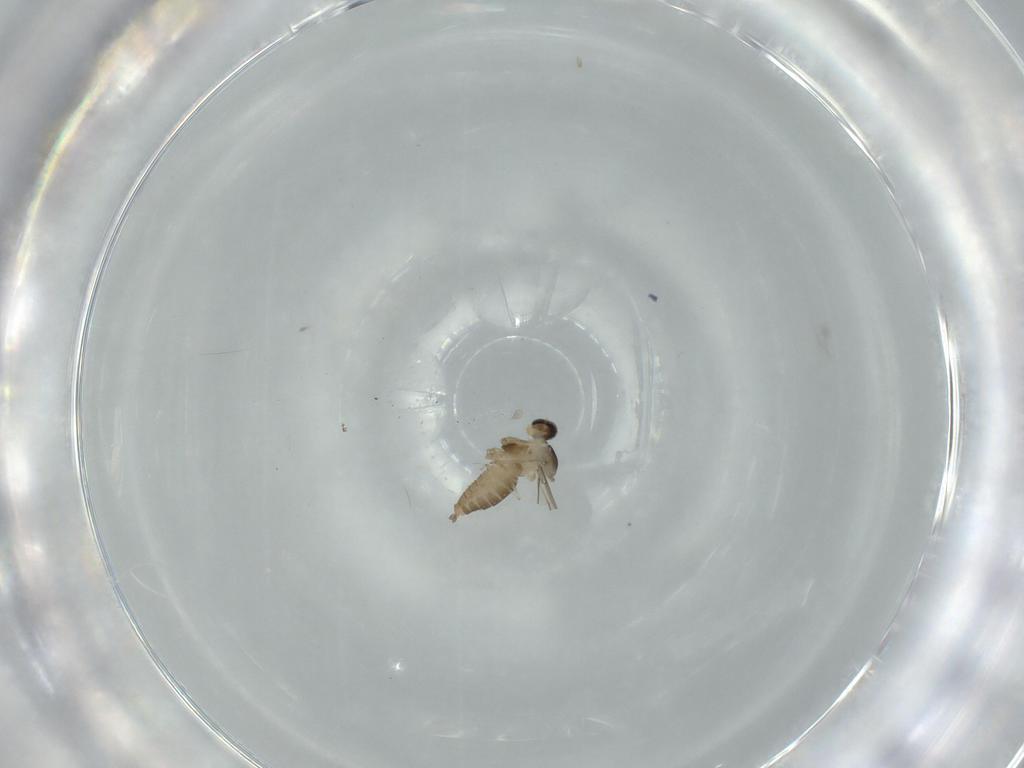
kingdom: Animalia
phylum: Arthropoda
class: Insecta
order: Diptera
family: Cecidomyiidae
